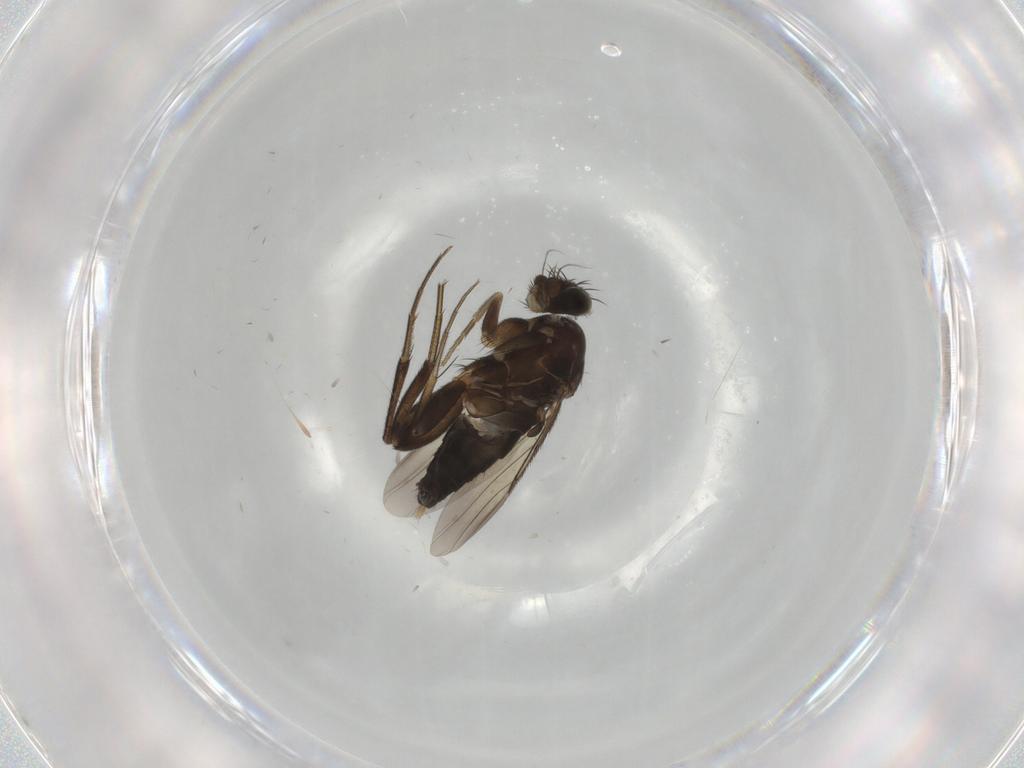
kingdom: Animalia
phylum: Arthropoda
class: Insecta
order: Diptera
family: Phoridae
